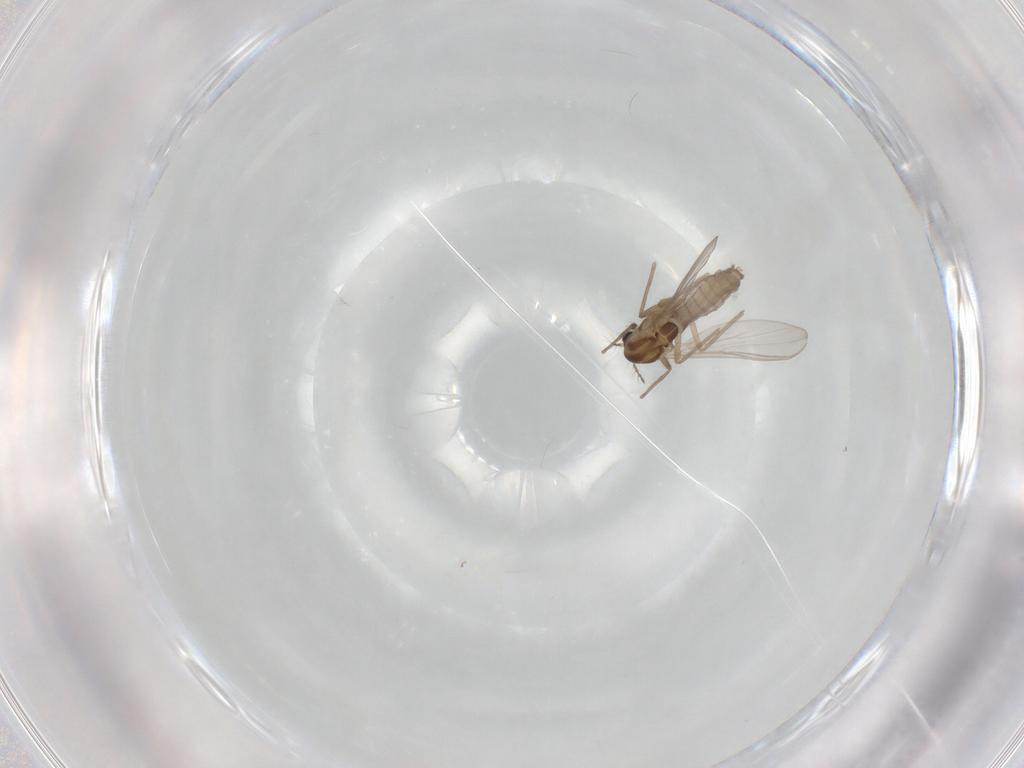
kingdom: Animalia
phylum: Arthropoda
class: Insecta
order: Diptera
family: Chironomidae
